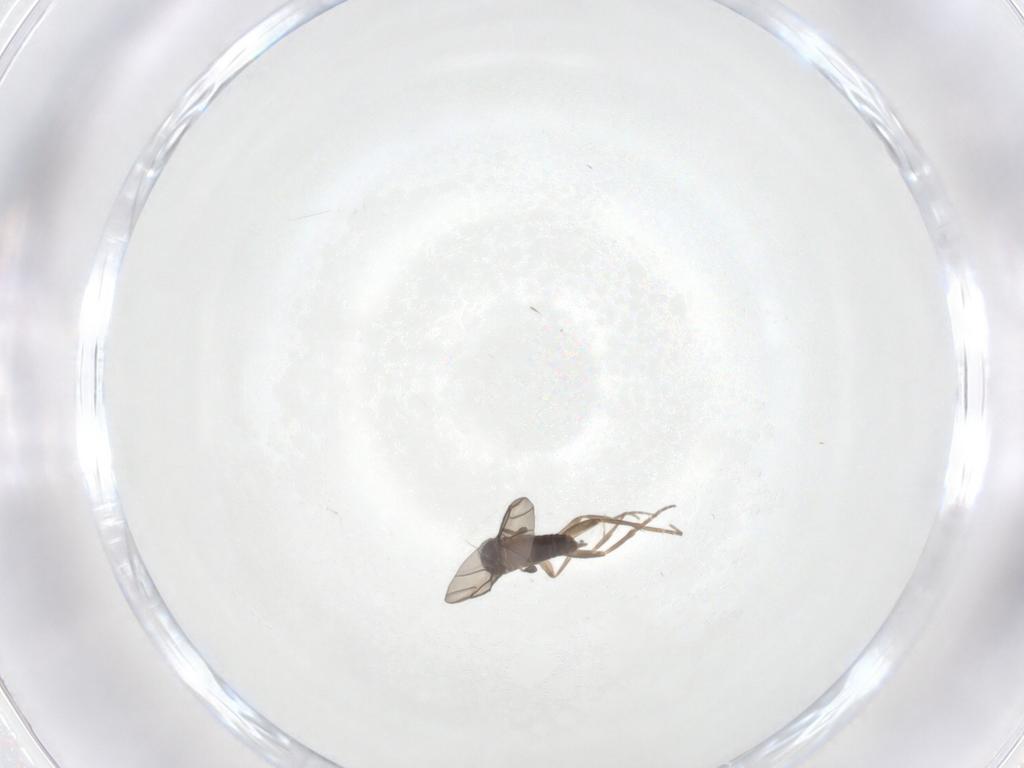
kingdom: Animalia
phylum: Arthropoda
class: Insecta
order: Diptera
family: Phoridae
